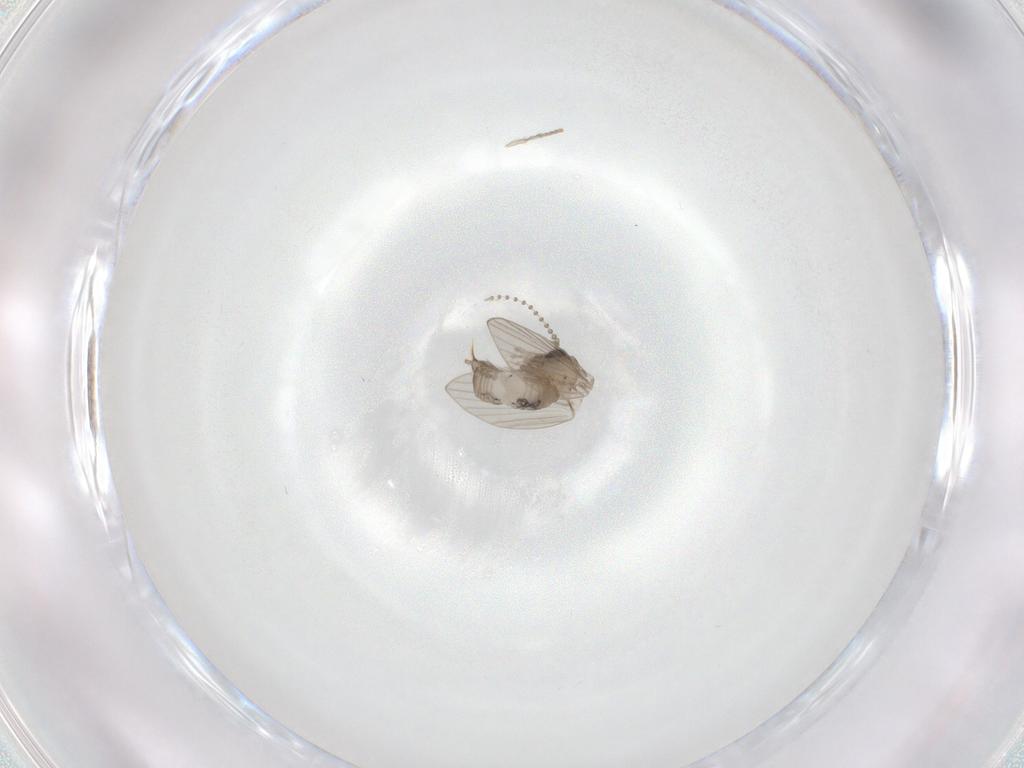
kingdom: Animalia
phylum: Arthropoda
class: Insecta
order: Diptera
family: Psychodidae
